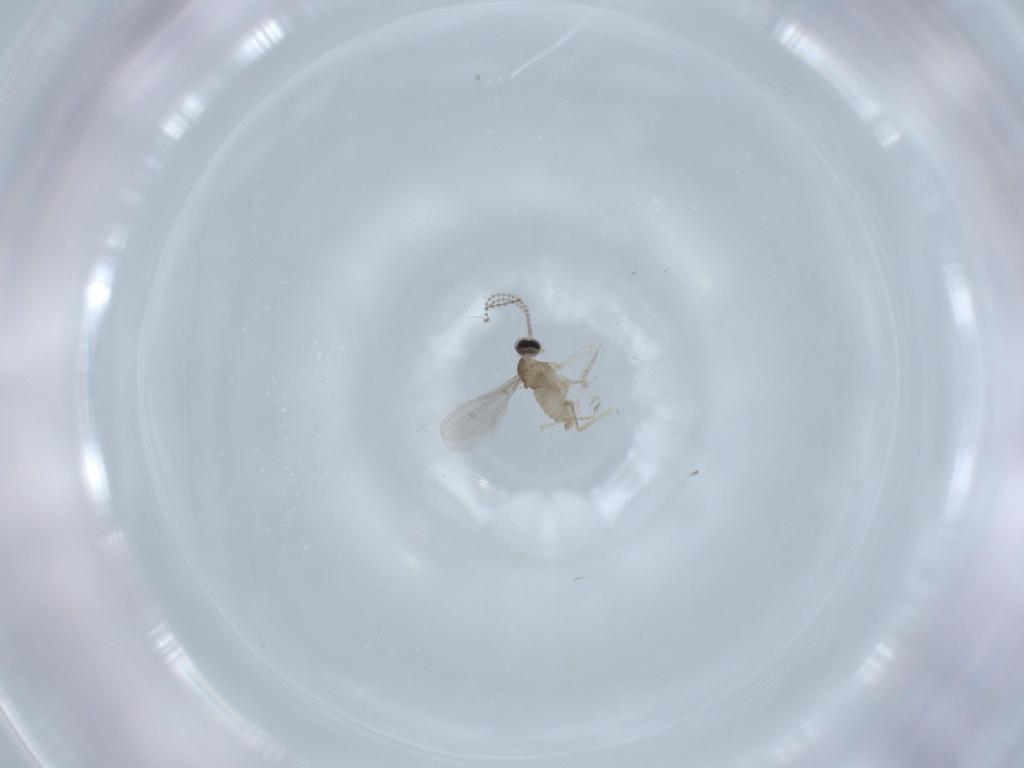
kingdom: Animalia
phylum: Arthropoda
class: Insecta
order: Diptera
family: Cecidomyiidae
